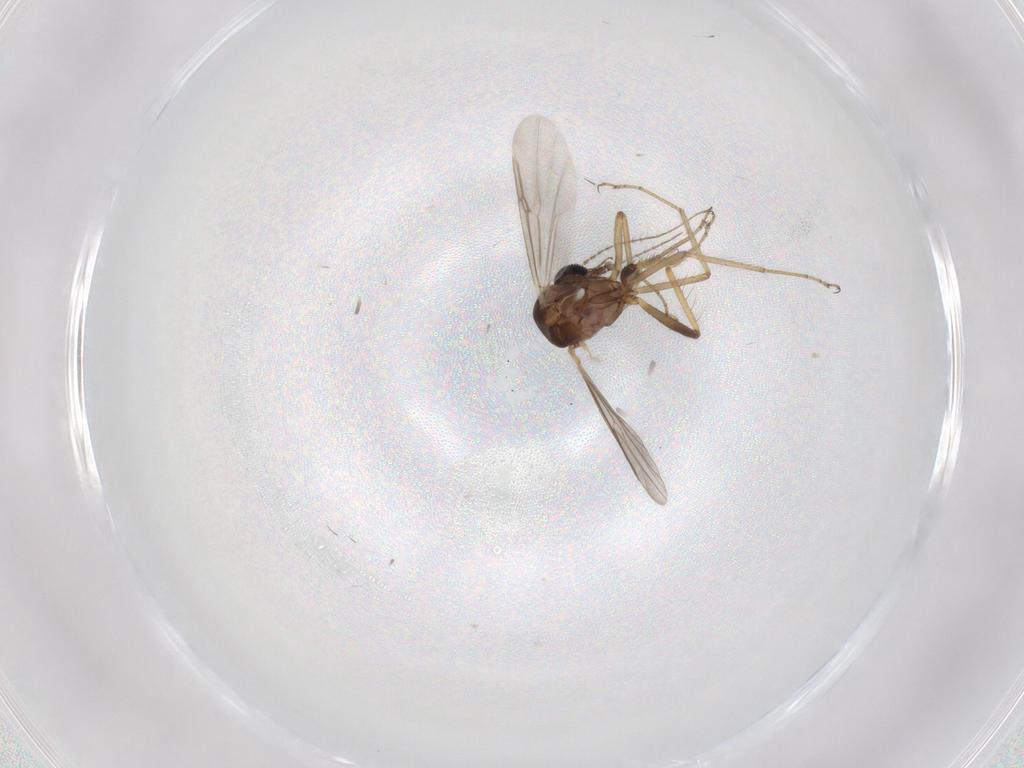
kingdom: Animalia
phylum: Arthropoda
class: Insecta
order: Diptera
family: Ceratopogonidae
